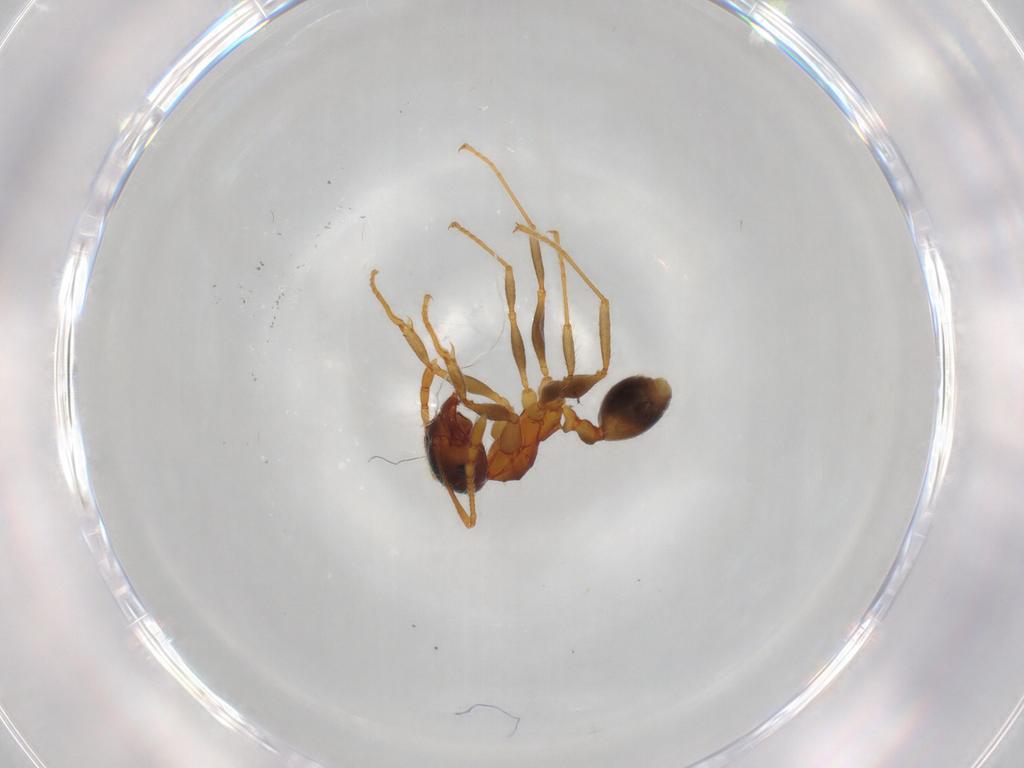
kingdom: Animalia
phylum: Arthropoda
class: Insecta
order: Hymenoptera
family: Formicidae
